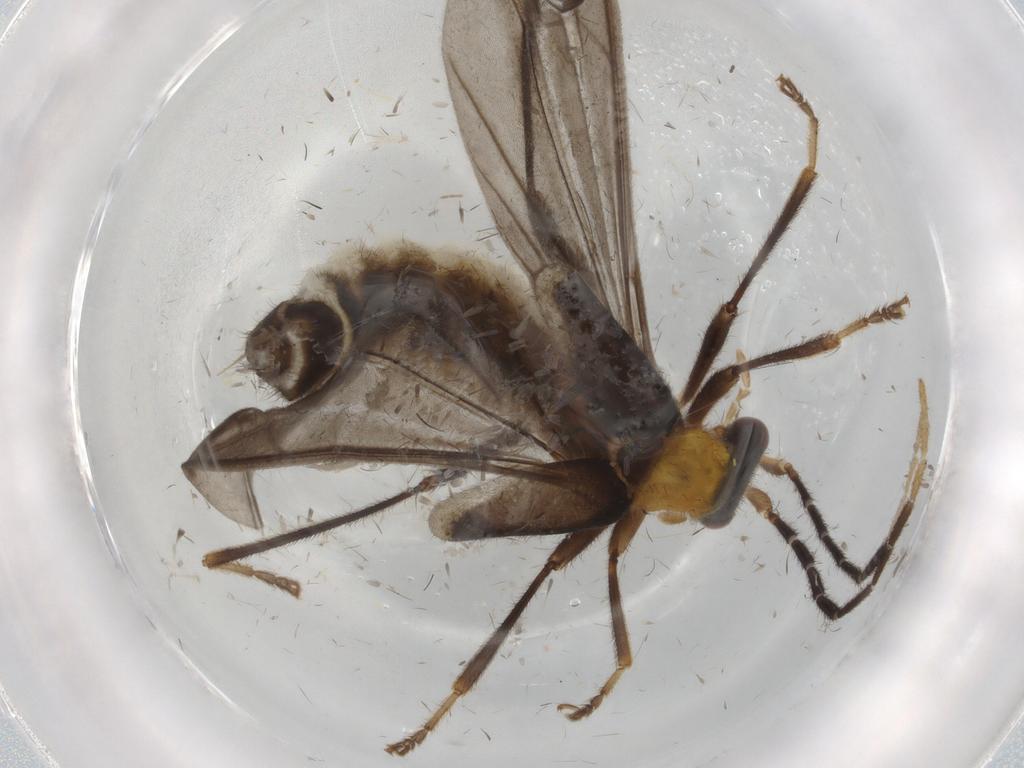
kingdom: Animalia
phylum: Arthropoda
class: Insecta
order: Coleoptera
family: Cantharidae
